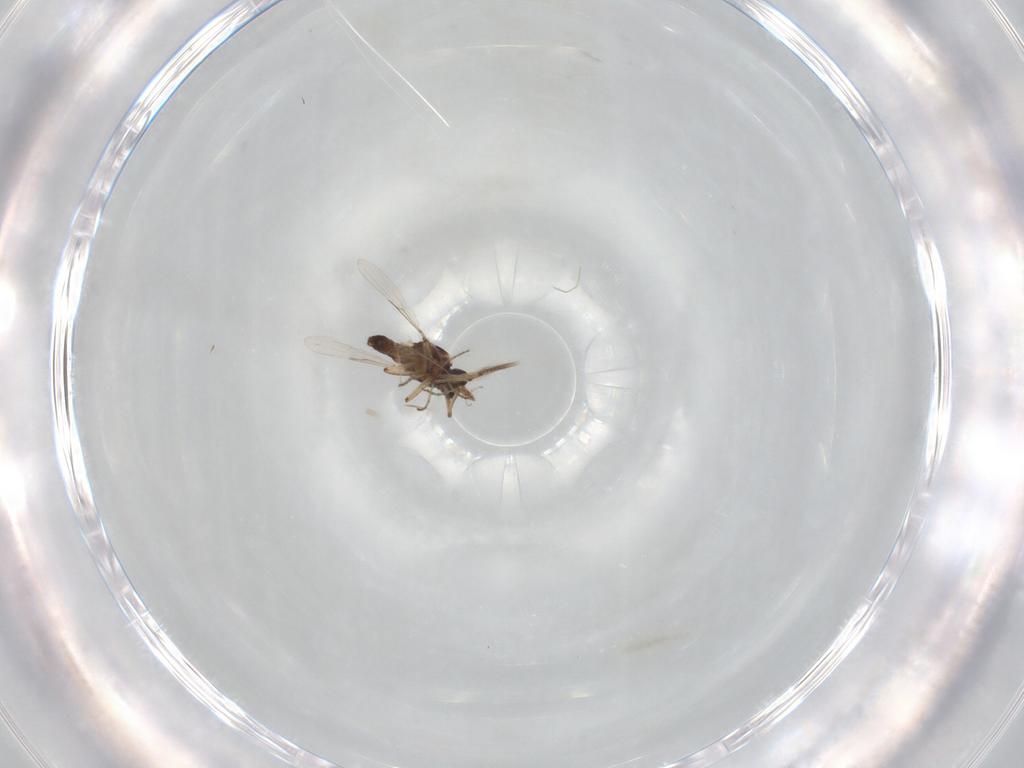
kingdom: Animalia
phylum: Arthropoda
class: Insecta
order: Diptera
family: Ceratopogonidae
